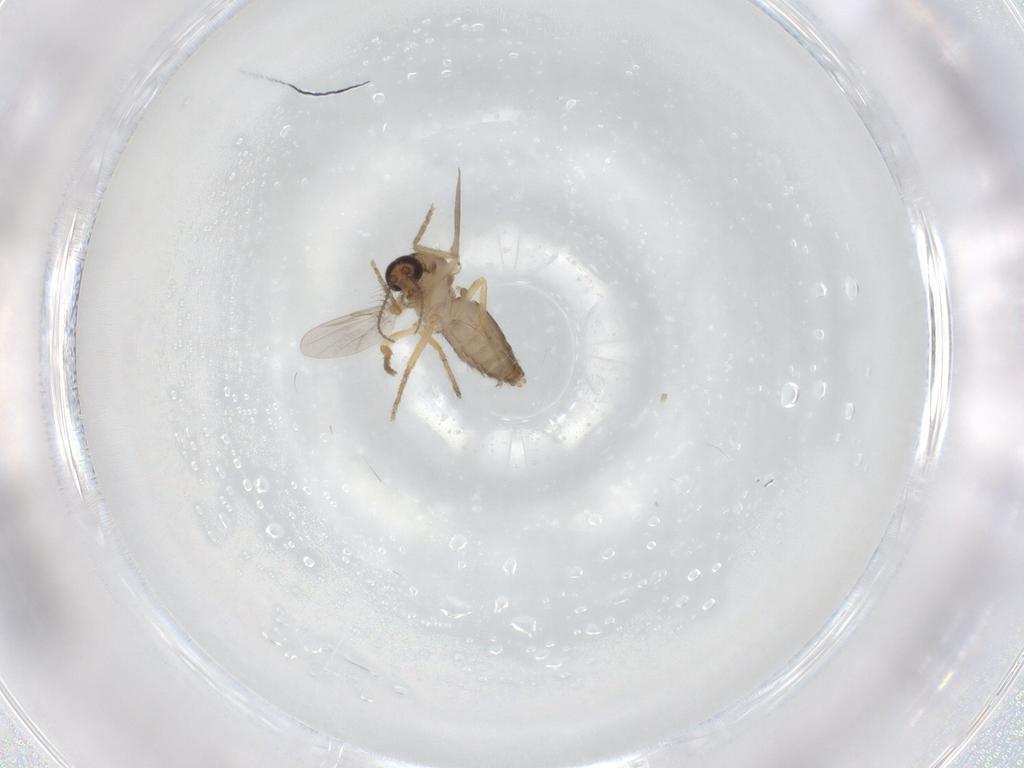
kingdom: Animalia
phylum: Arthropoda
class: Insecta
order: Diptera
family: Ceratopogonidae
